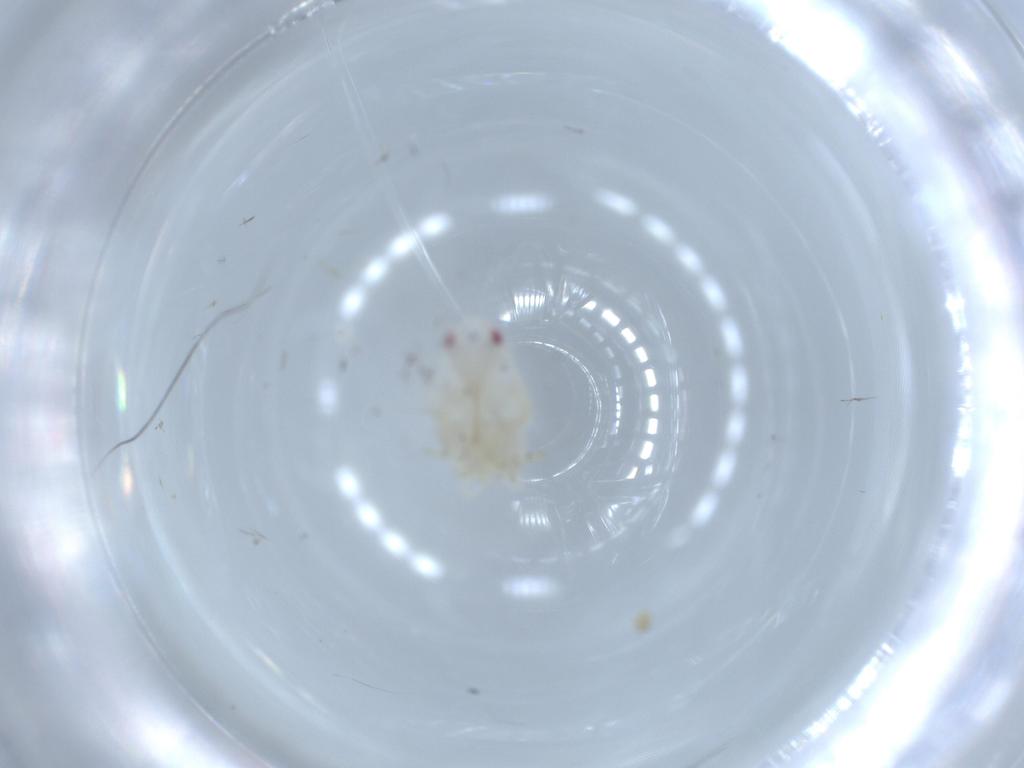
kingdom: Animalia
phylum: Arthropoda
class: Insecta
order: Hemiptera
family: Flatidae
